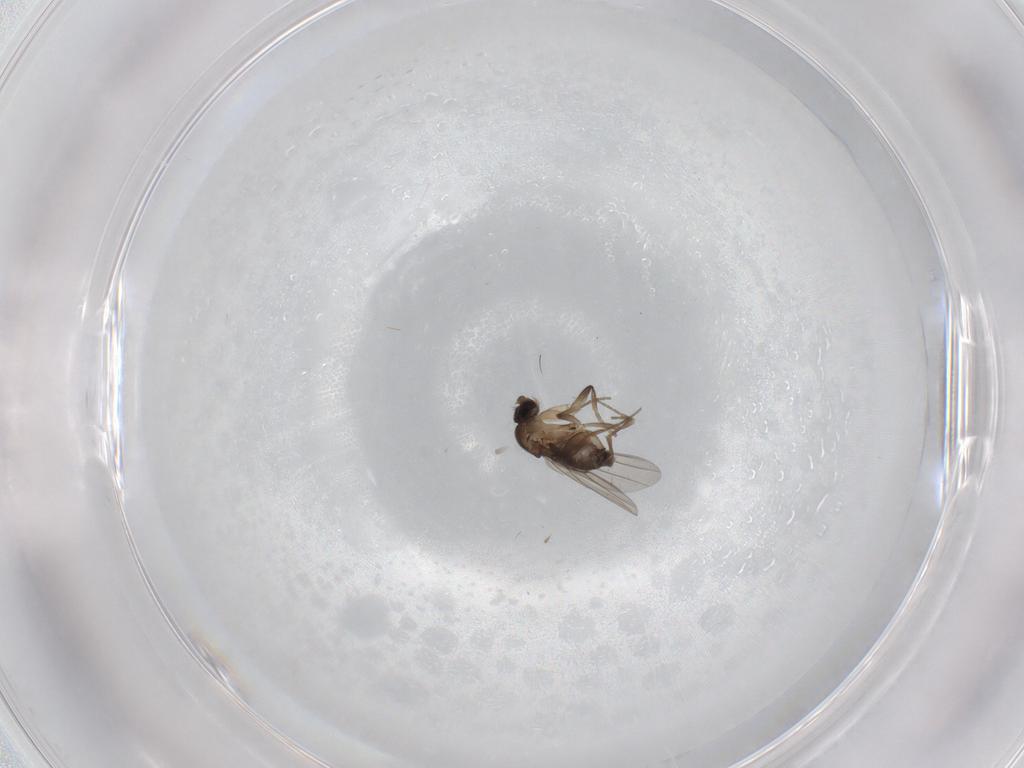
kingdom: Animalia
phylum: Arthropoda
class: Insecta
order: Diptera
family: Phoridae
